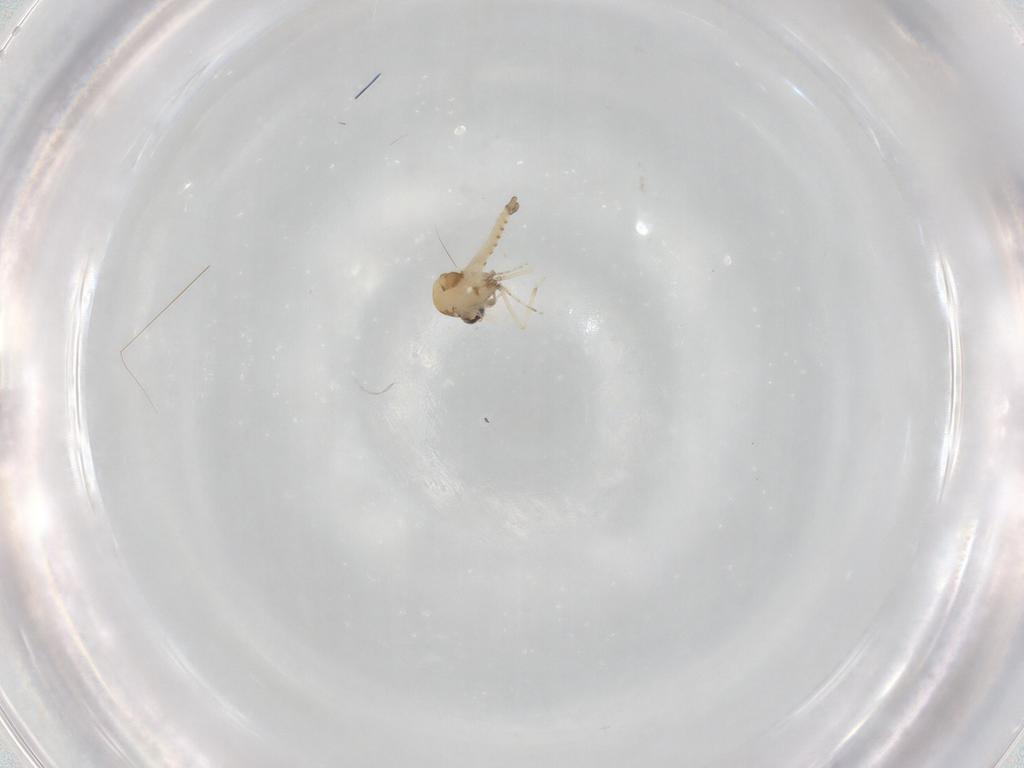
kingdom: Animalia
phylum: Arthropoda
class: Insecta
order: Diptera
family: Ceratopogonidae
